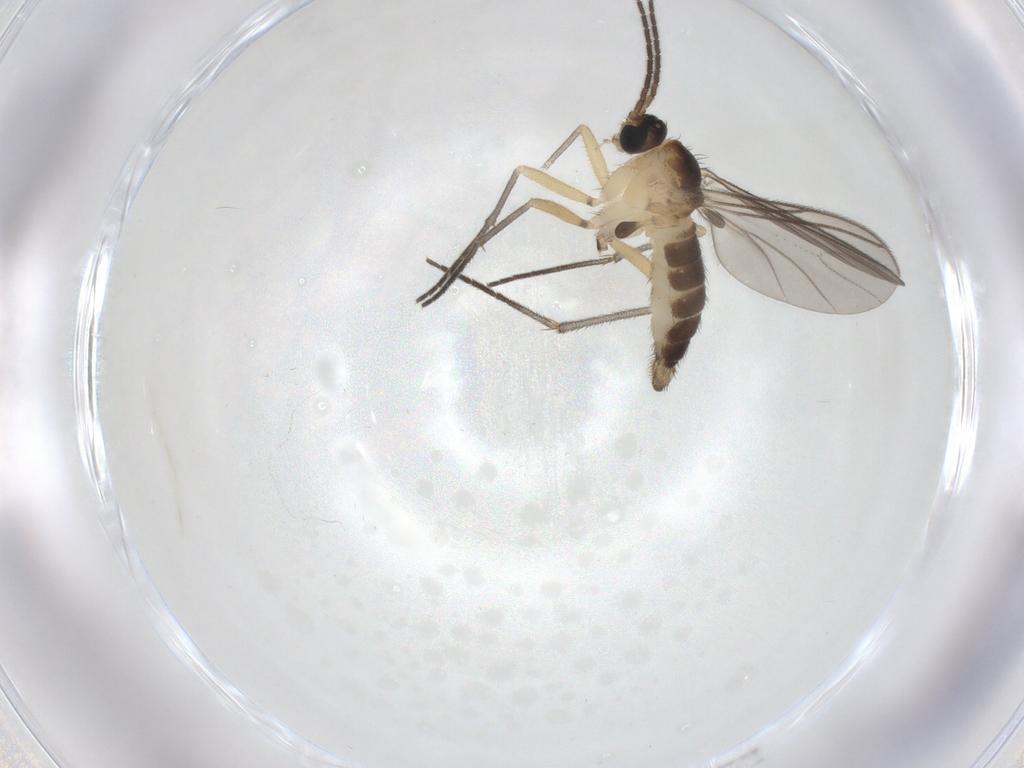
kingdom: Animalia
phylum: Arthropoda
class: Insecta
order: Diptera
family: Sciaridae
